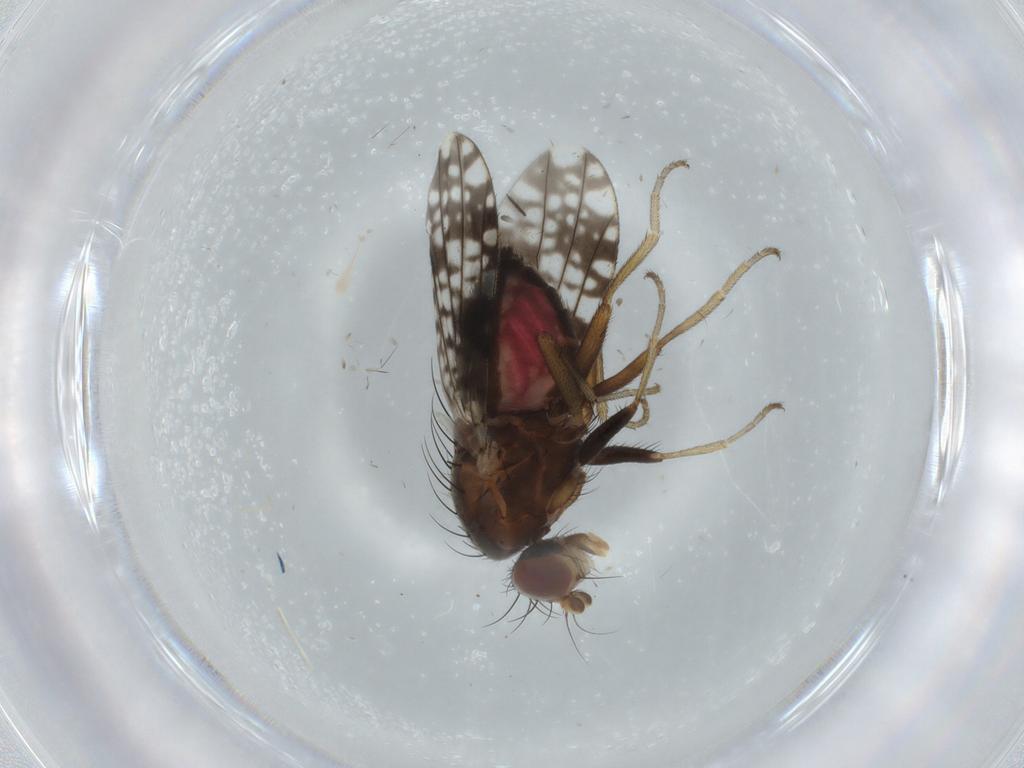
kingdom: Animalia
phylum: Arthropoda
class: Insecta
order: Diptera
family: Tephritidae
